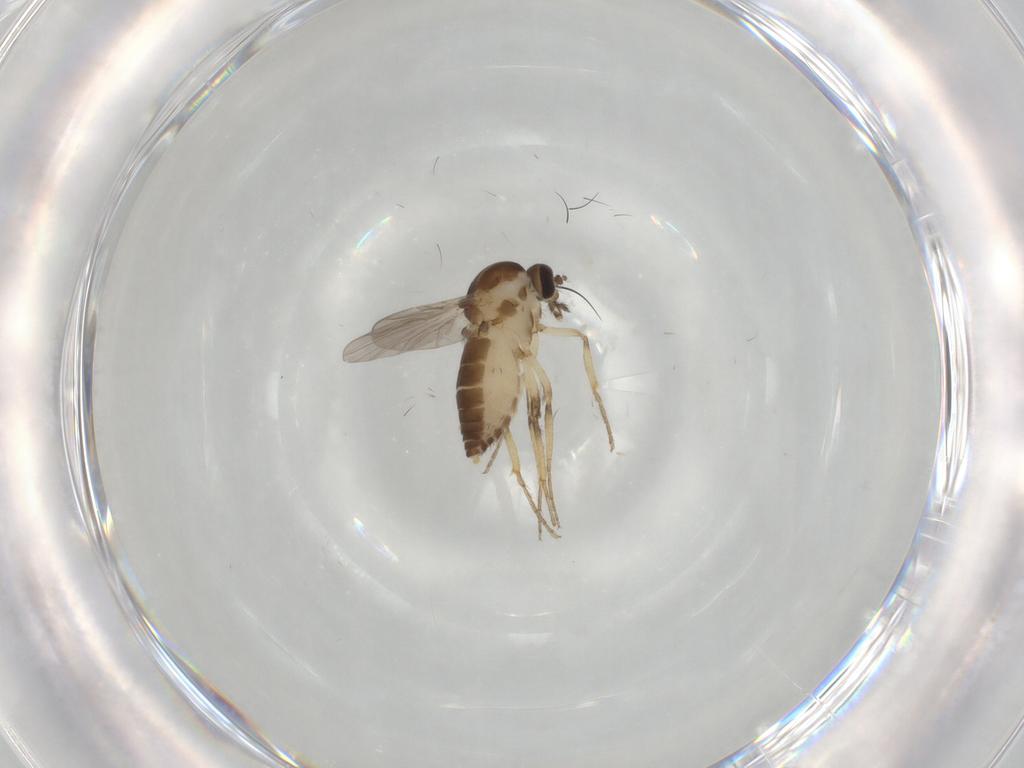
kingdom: Animalia
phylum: Arthropoda
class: Insecta
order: Diptera
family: Ceratopogonidae
